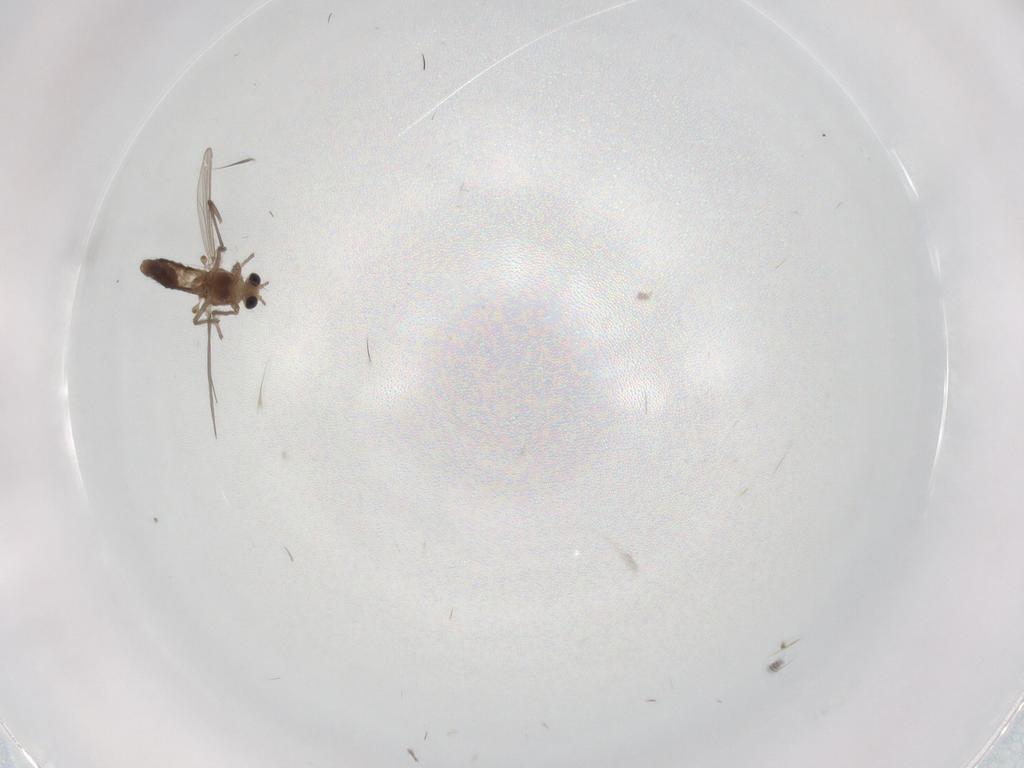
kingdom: Animalia
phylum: Arthropoda
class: Insecta
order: Diptera
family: Chironomidae
